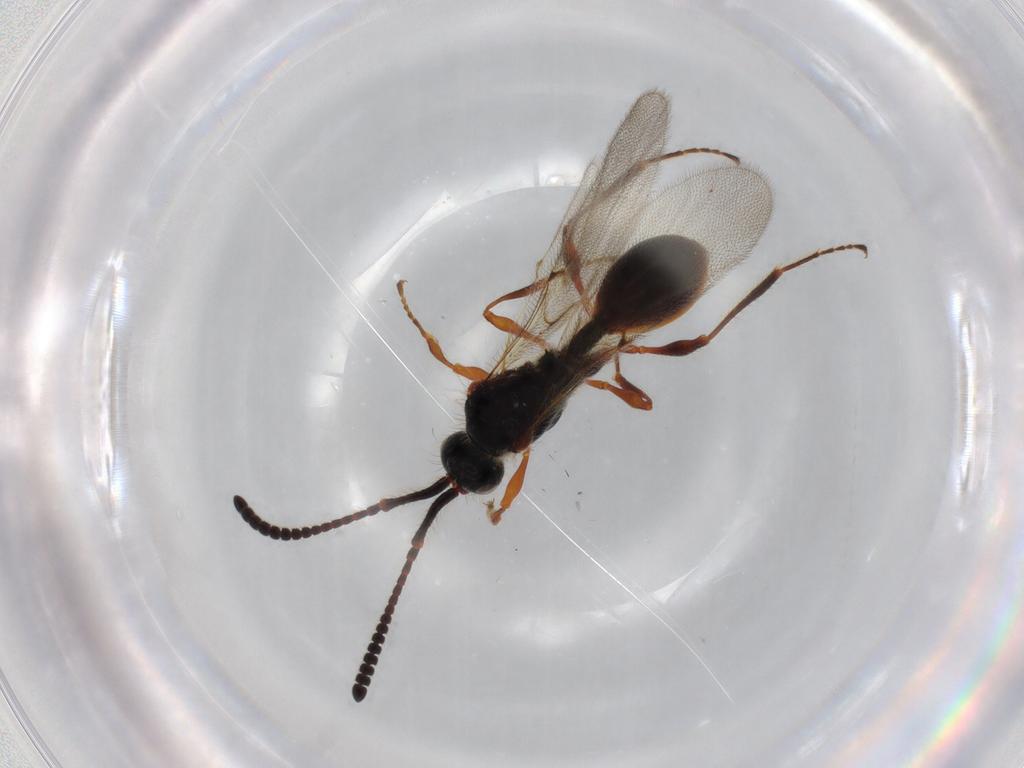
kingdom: Animalia
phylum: Arthropoda
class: Insecta
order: Hymenoptera
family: Diapriidae
